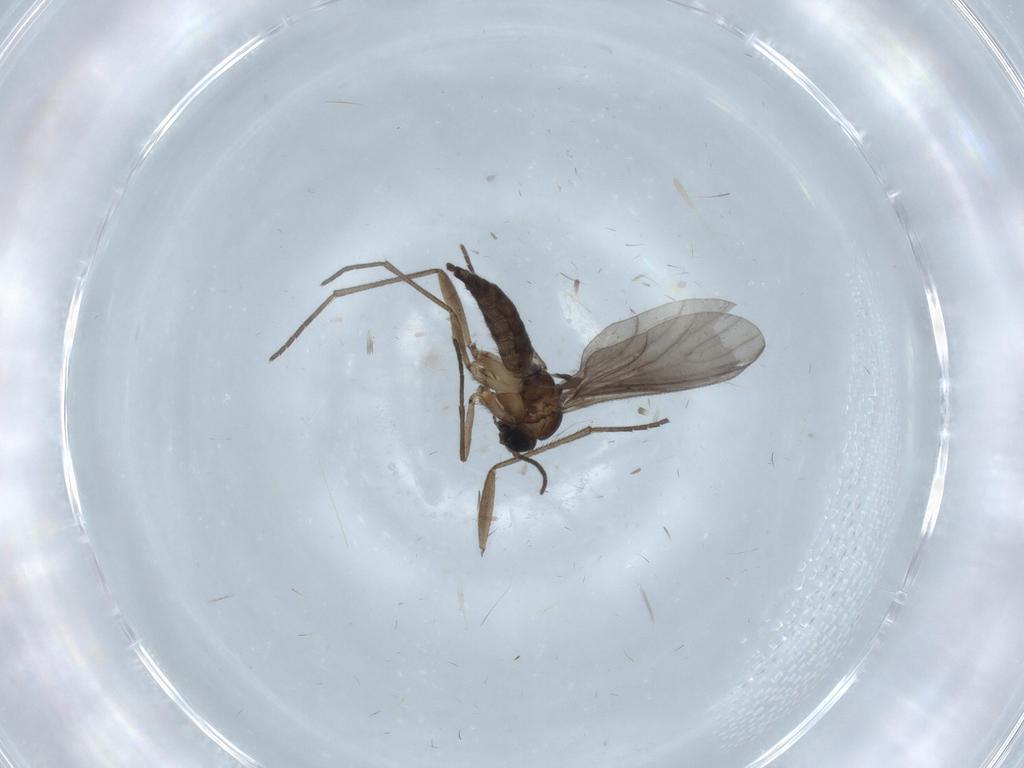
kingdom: Animalia
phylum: Arthropoda
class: Insecta
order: Diptera
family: Sciaridae
